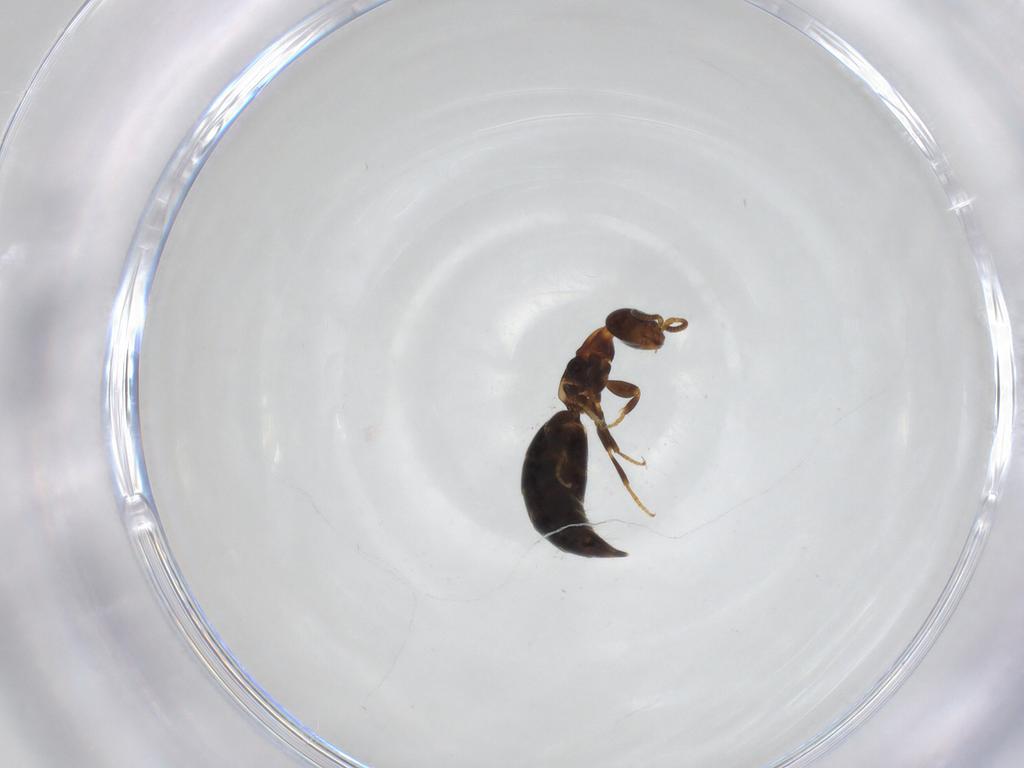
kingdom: Animalia
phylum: Arthropoda
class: Insecta
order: Hymenoptera
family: Bethylidae
